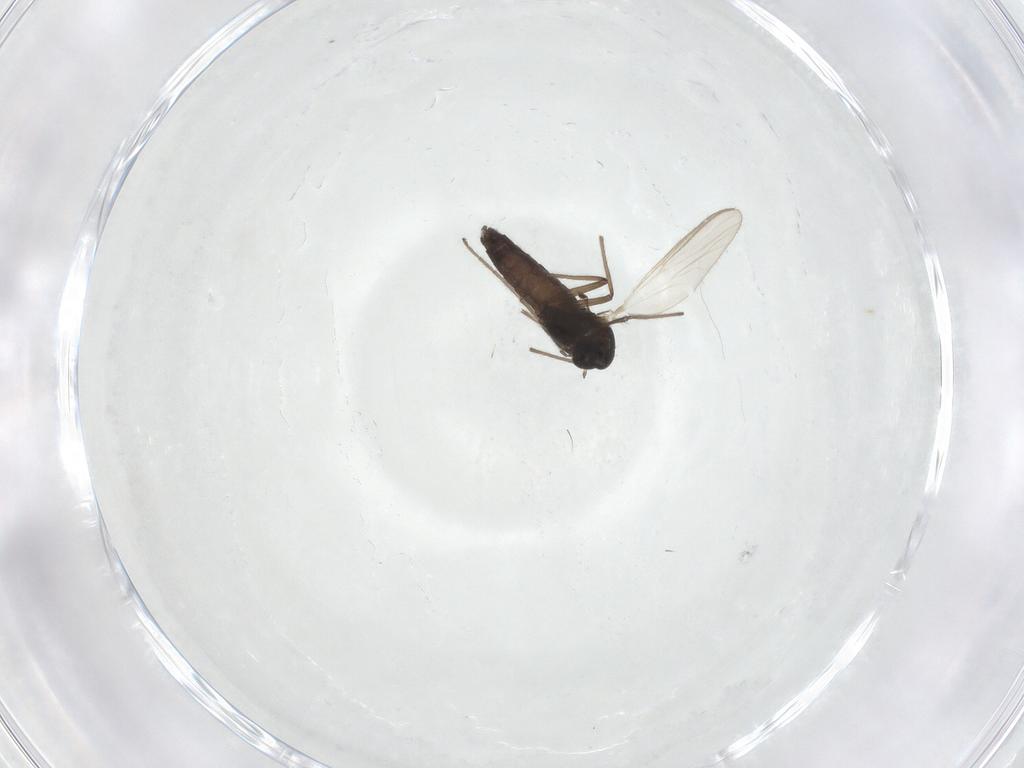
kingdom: Animalia
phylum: Arthropoda
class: Insecta
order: Diptera
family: Chironomidae
